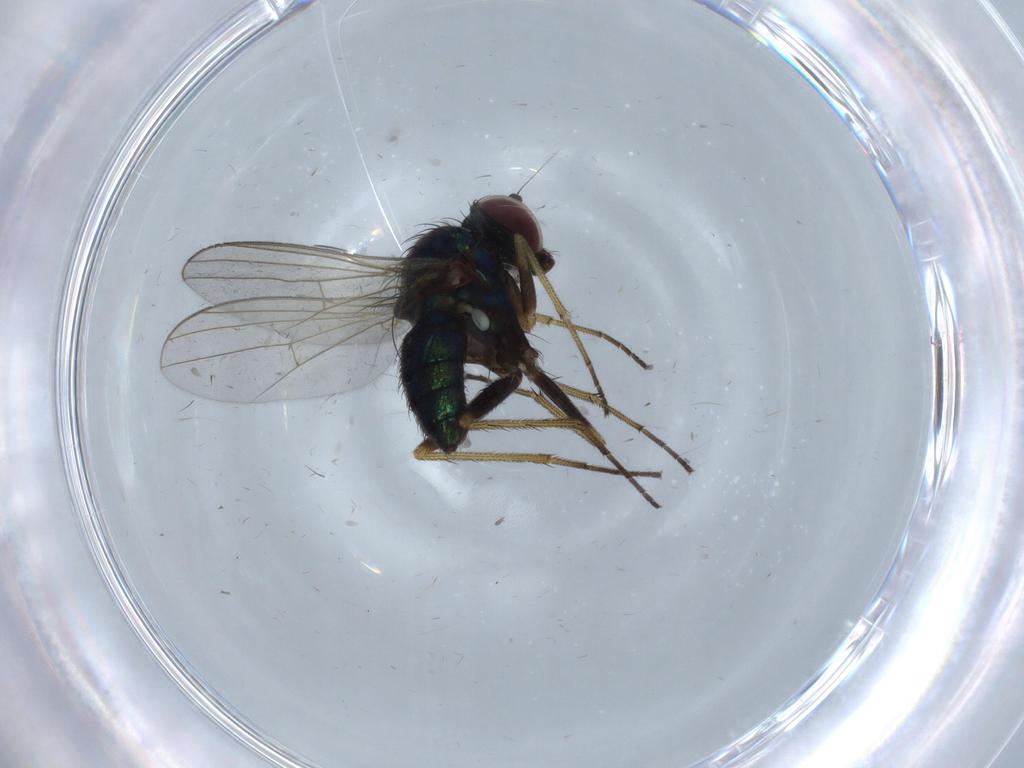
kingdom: Animalia
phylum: Arthropoda
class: Insecta
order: Diptera
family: Dolichopodidae
